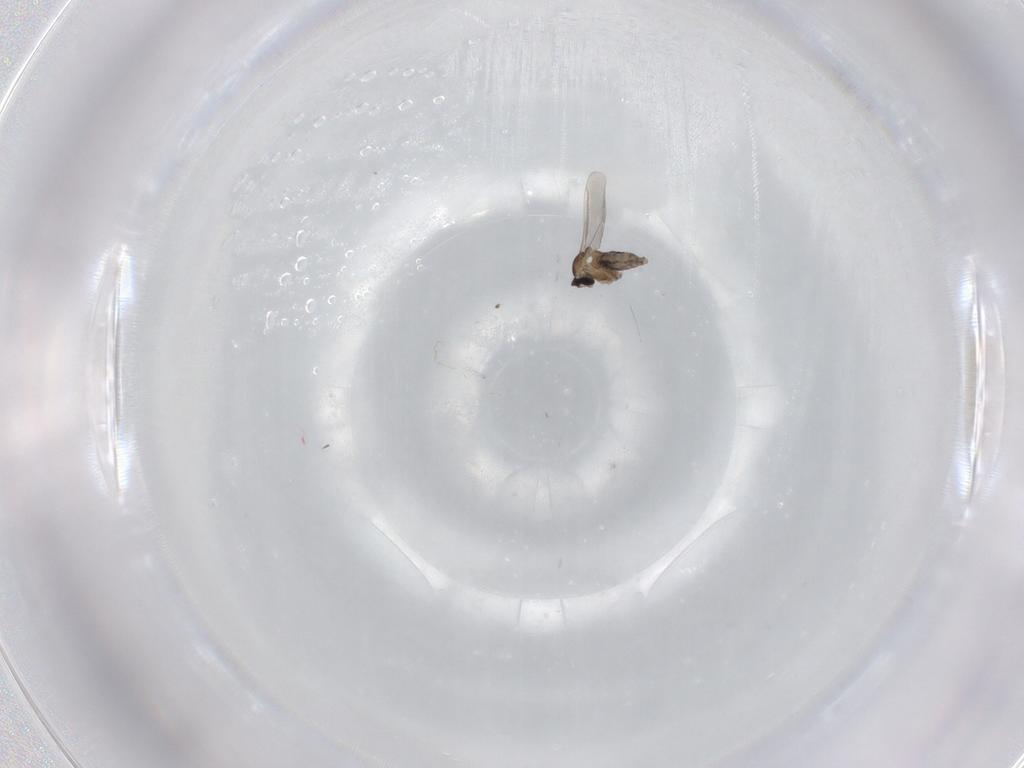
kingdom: Animalia
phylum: Arthropoda
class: Insecta
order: Diptera
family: Cecidomyiidae
